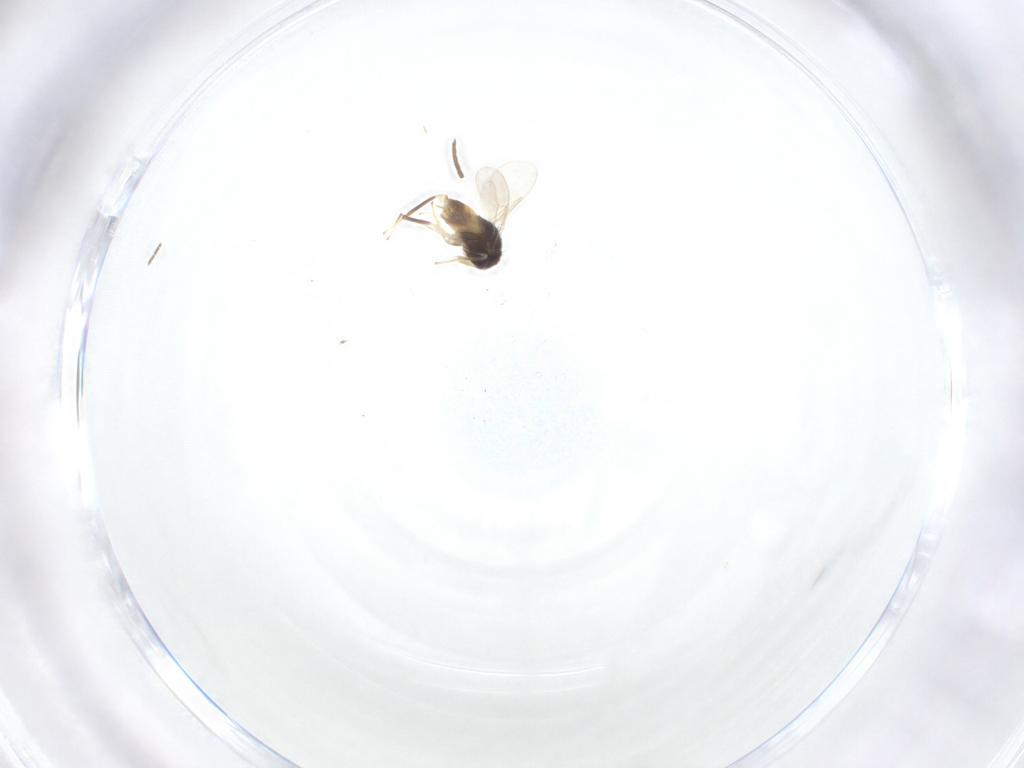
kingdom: Animalia
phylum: Arthropoda
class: Insecta
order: Hymenoptera
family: Aphelinidae
